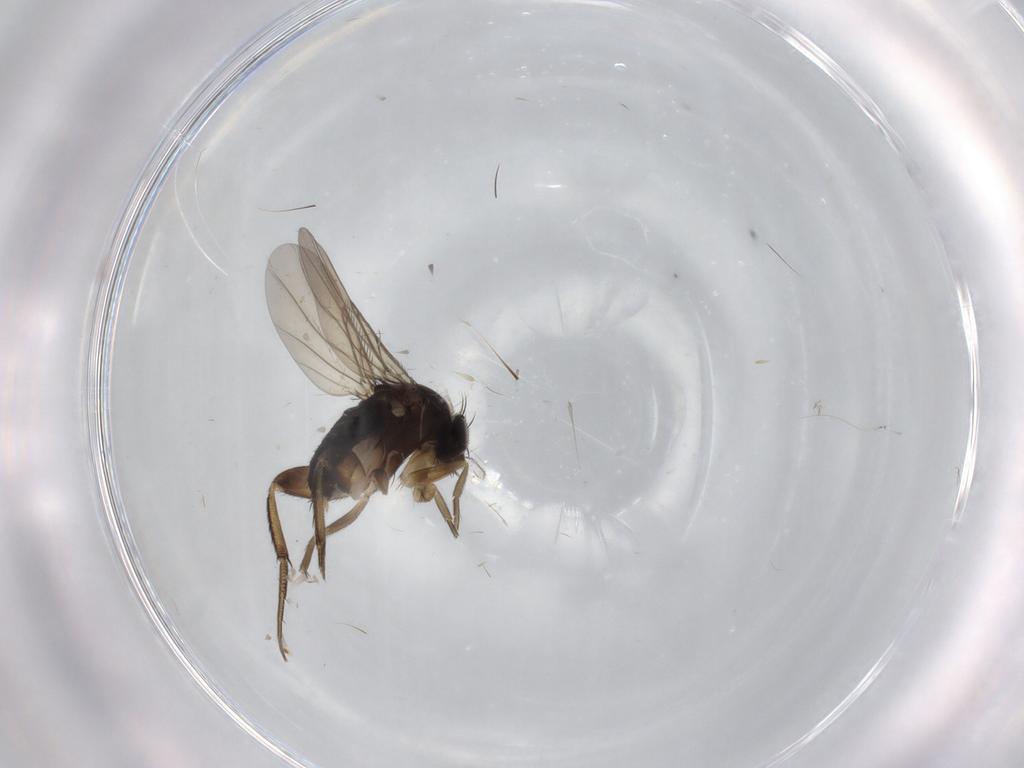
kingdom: Animalia
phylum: Arthropoda
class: Insecta
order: Diptera
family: Phoridae
